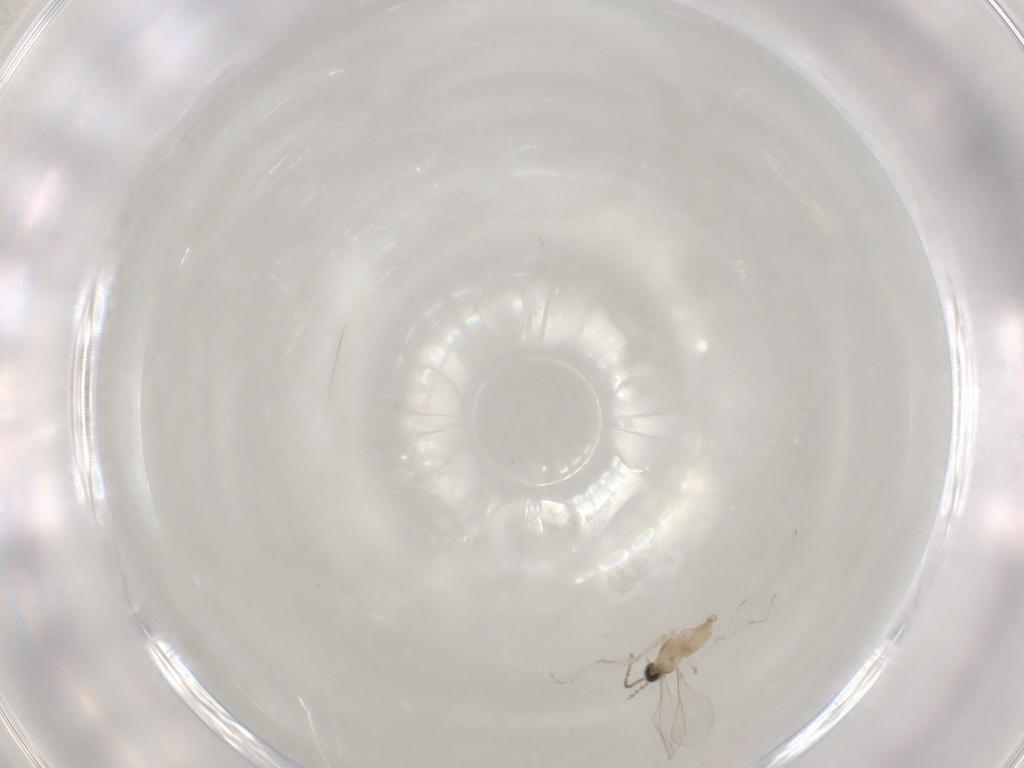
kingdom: Animalia
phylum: Arthropoda
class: Insecta
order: Diptera
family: Cecidomyiidae
